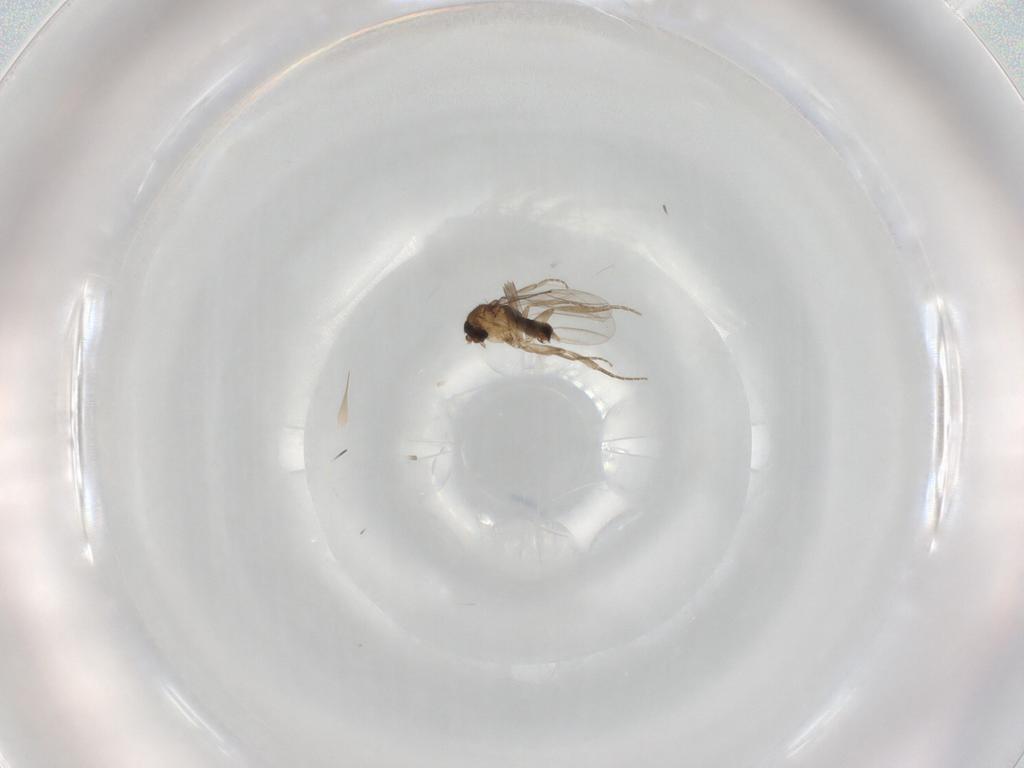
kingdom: Animalia
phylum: Arthropoda
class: Insecta
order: Diptera
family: Phoridae
